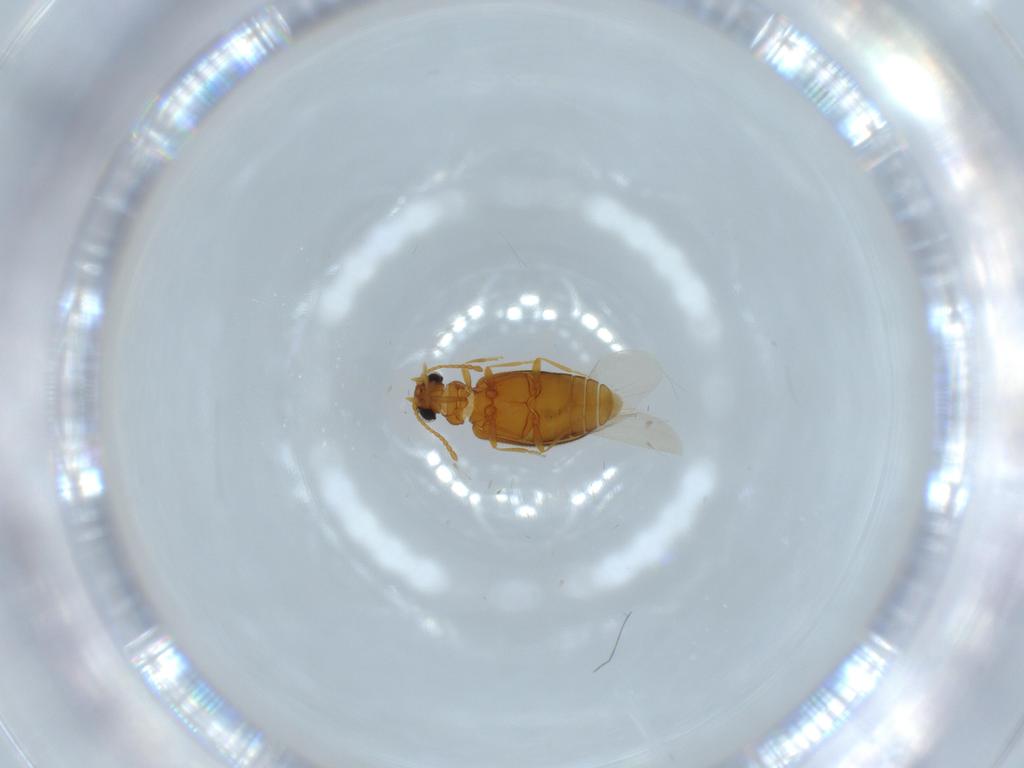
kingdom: Animalia
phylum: Arthropoda
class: Insecta
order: Coleoptera
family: Aderidae
